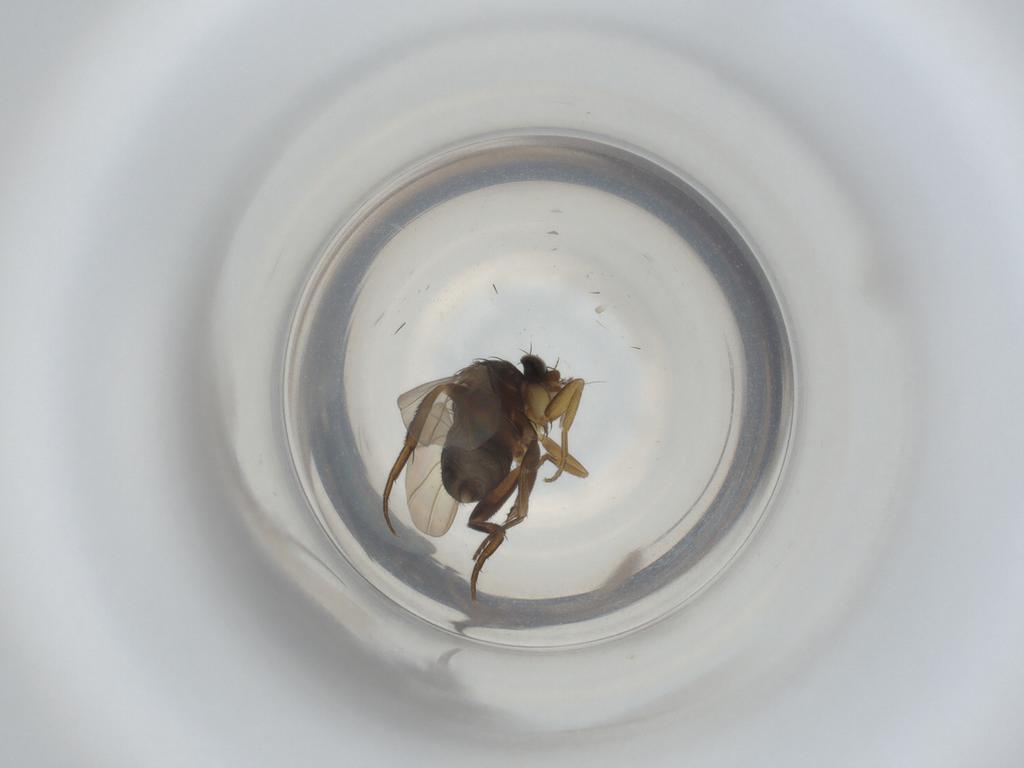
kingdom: Animalia
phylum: Arthropoda
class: Insecta
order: Diptera
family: Phoridae
